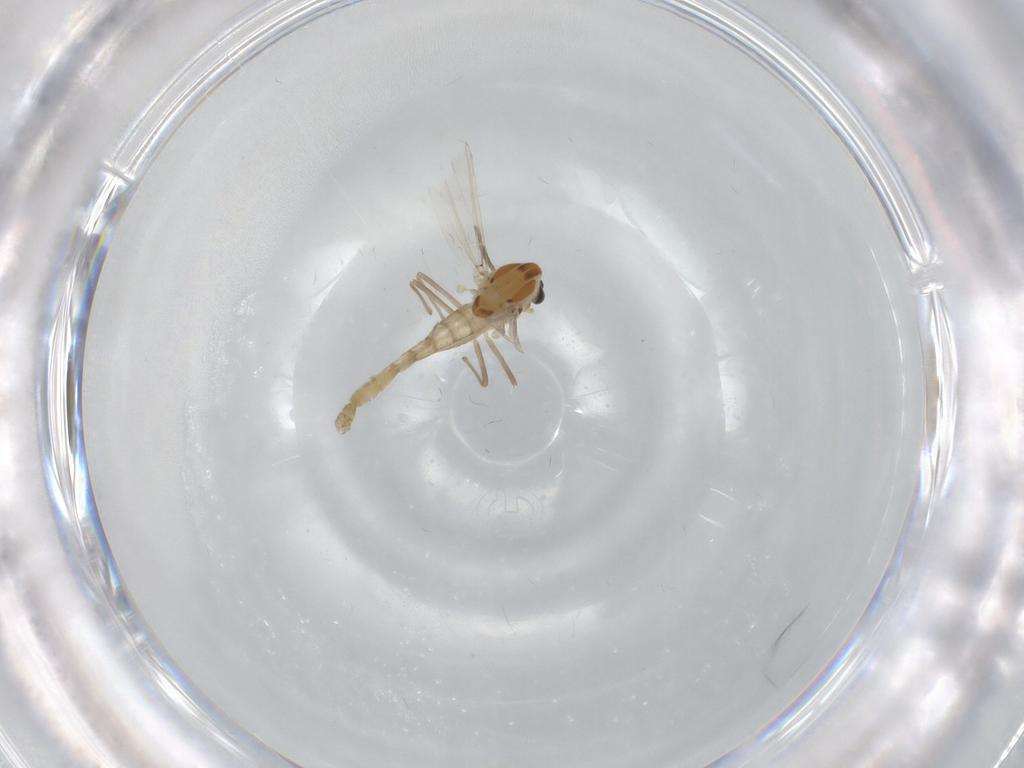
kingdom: Animalia
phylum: Arthropoda
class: Insecta
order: Diptera
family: Chironomidae
